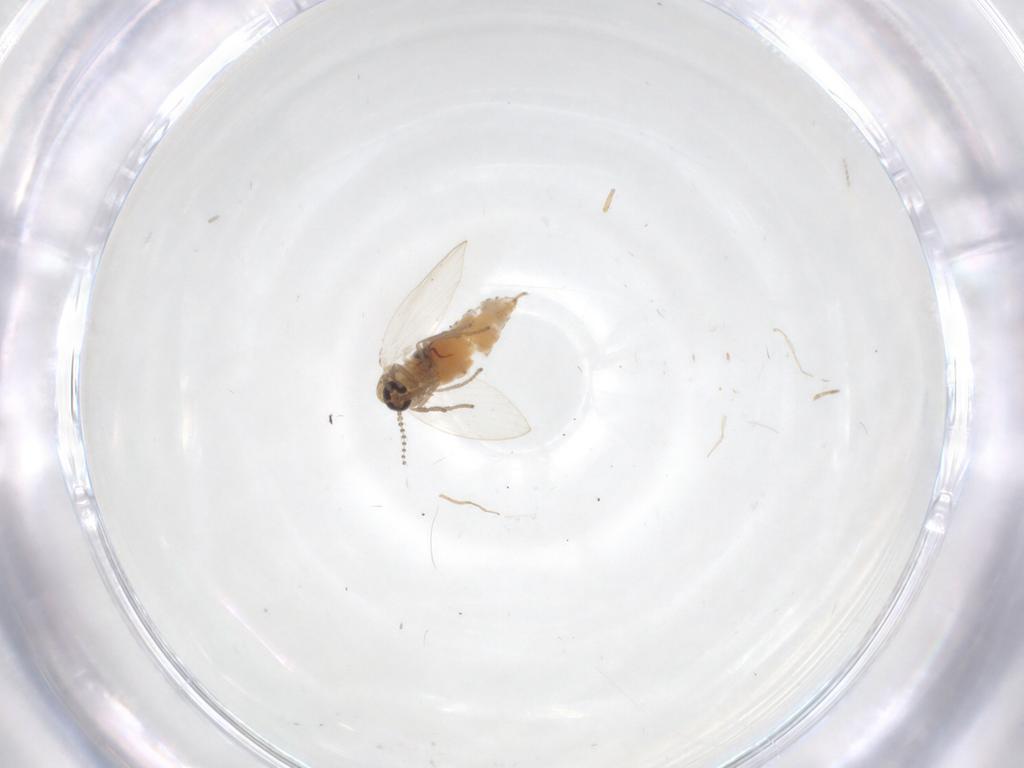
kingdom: Animalia
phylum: Arthropoda
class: Insecta
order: Diptera
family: Psychodidae
